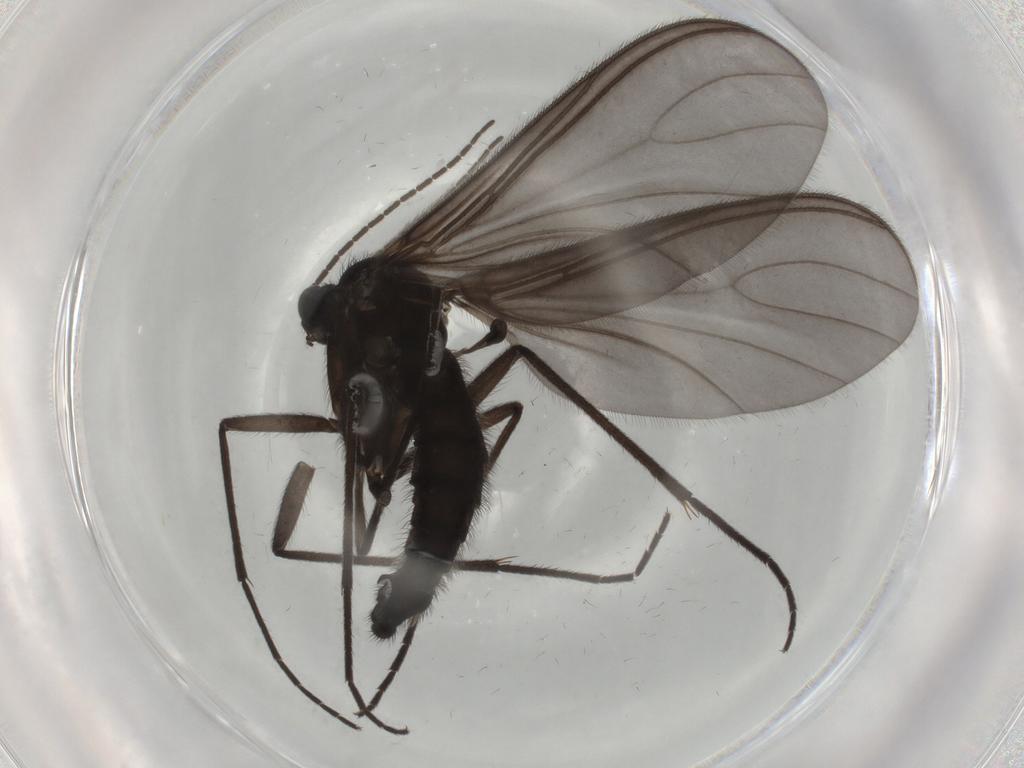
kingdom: Animalia
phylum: Arthropoda
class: Insecta
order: Diptera
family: Sciaridae
